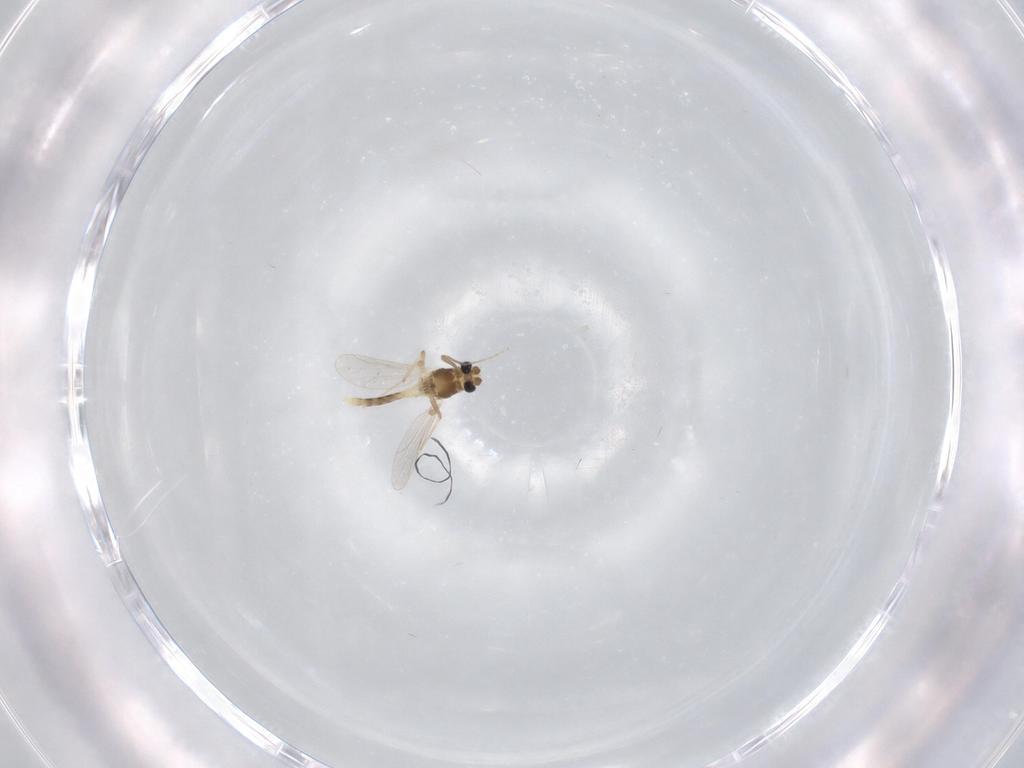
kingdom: Animalia
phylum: Arthropoda
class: Insecta
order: Diptera
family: Chironomidae
